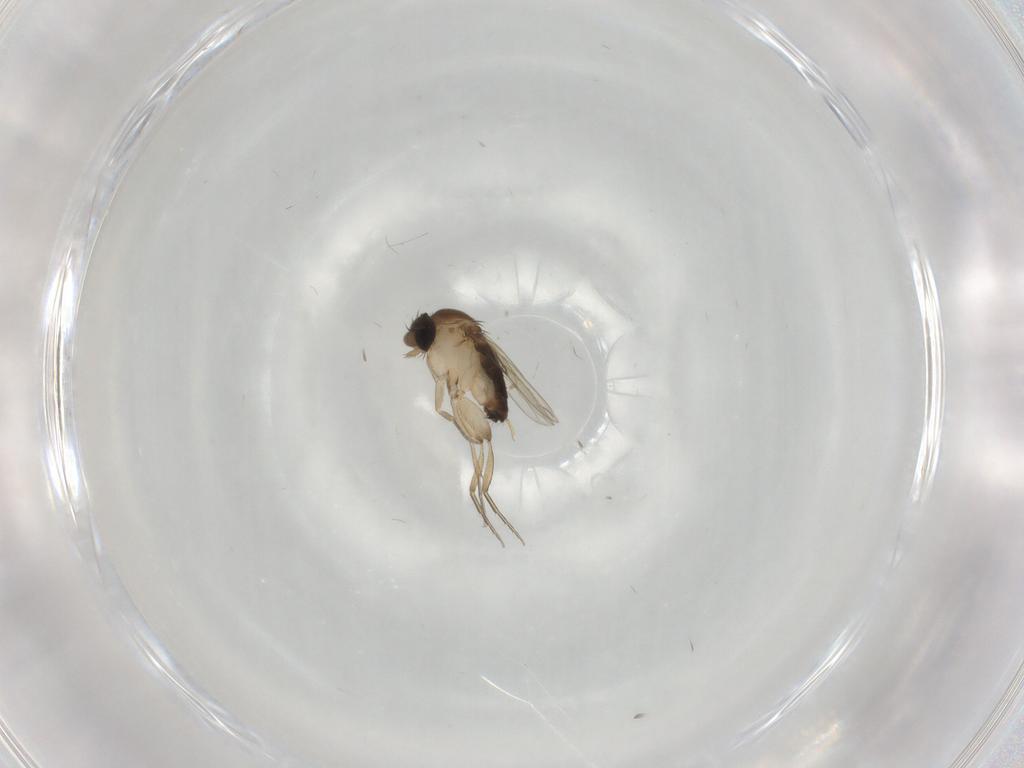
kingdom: Animalia
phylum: Arthropoda
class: Insecta
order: Diptera
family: Phoridae
